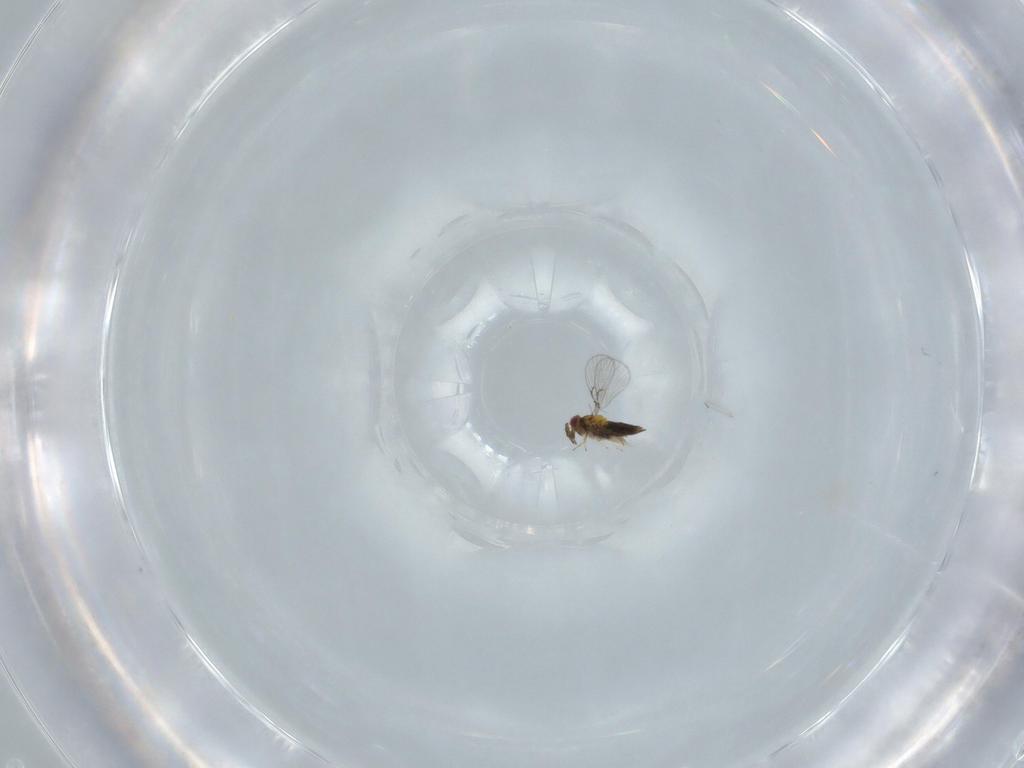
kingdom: Animalia
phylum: Arthropoda
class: Insecta
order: Hymenoptera
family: Trichogrammatidae
